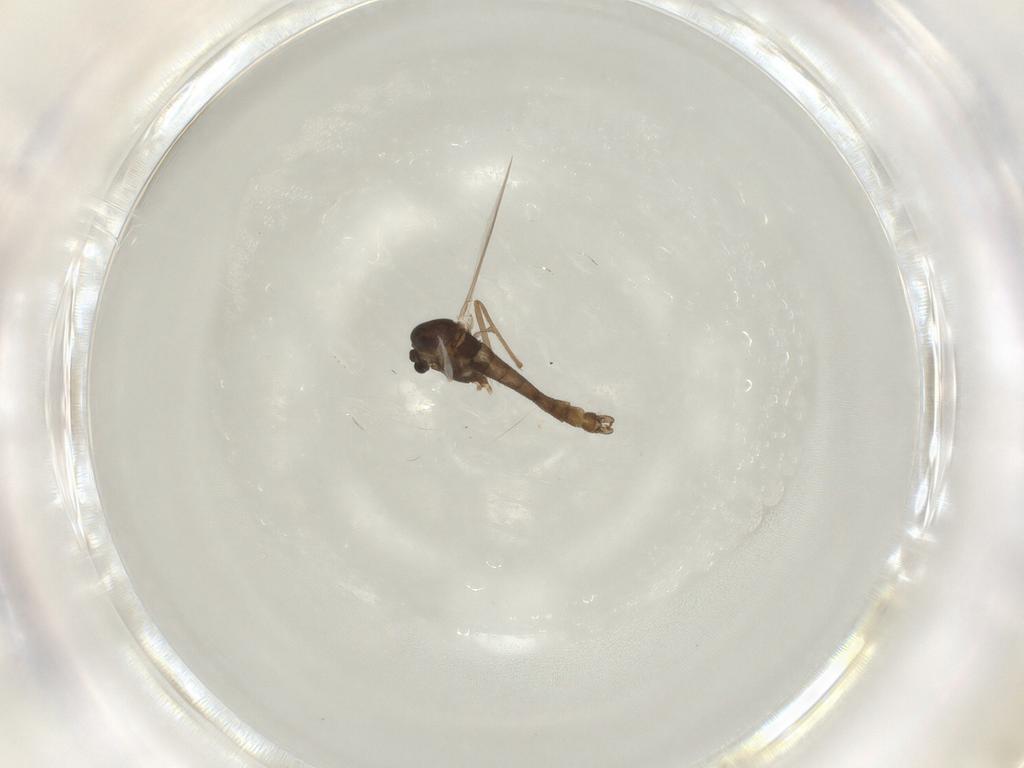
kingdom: Animalia
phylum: Arthropoda
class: Insecta
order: Diptera
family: Chironomidae
